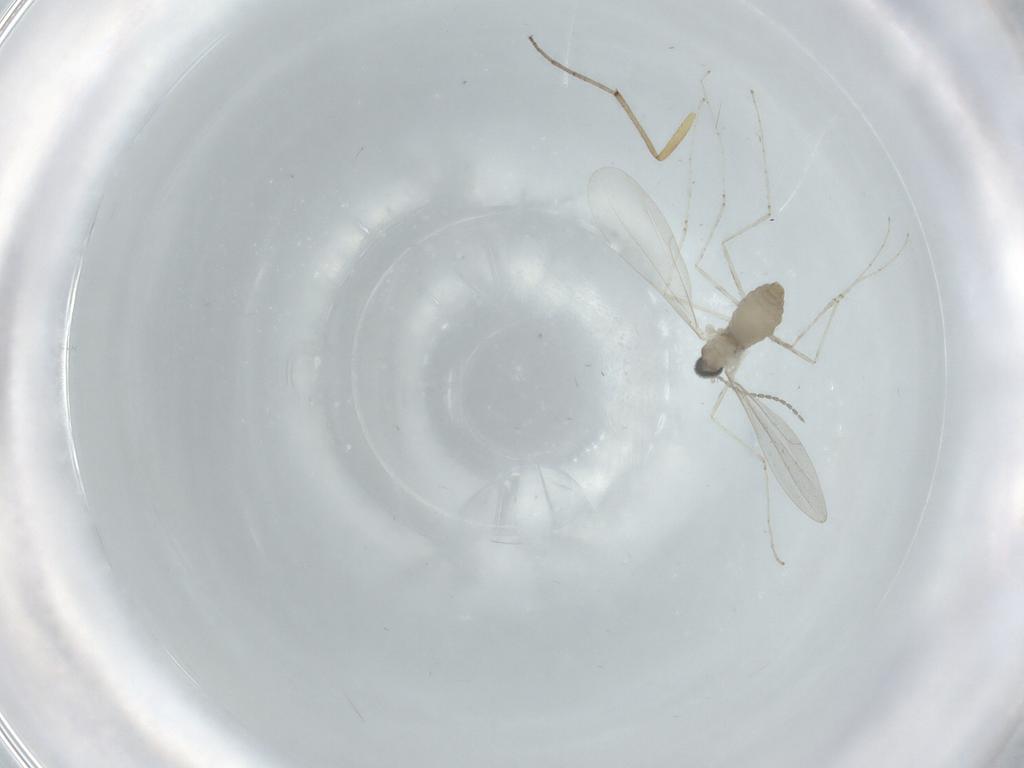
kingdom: Animalia
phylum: Arthropoda
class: Insecta
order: Diptera
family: Cecidomyiidae
